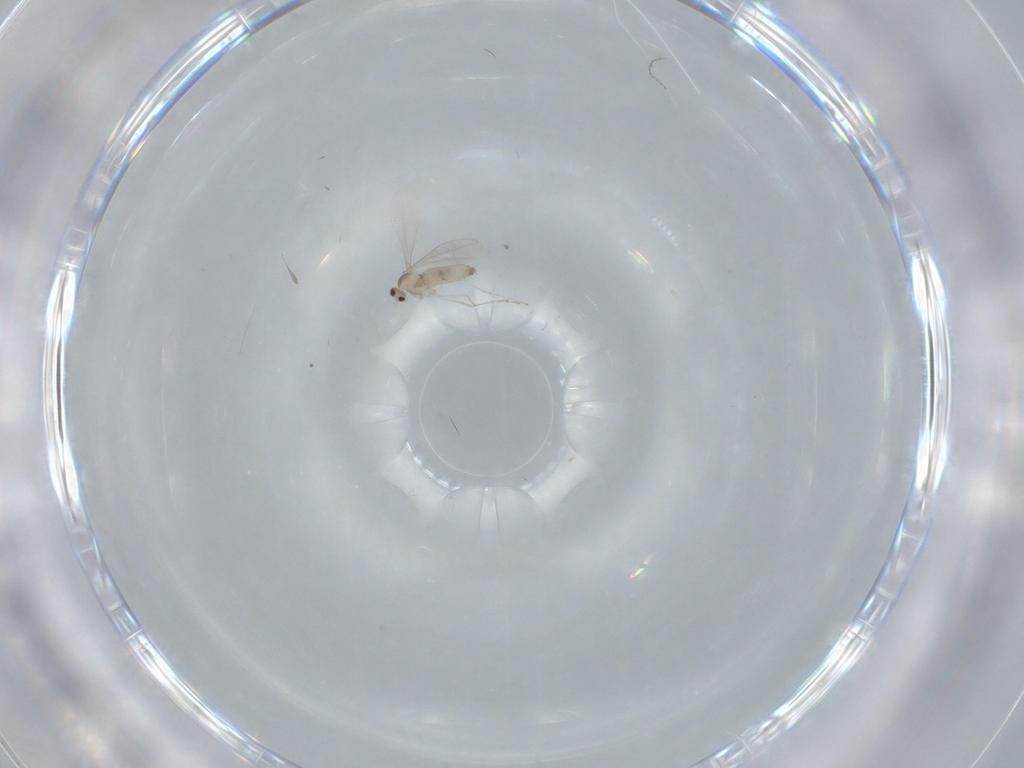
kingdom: Animalia
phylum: Arthropoda
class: Insecta
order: Diptera
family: Cecidomyiidae
